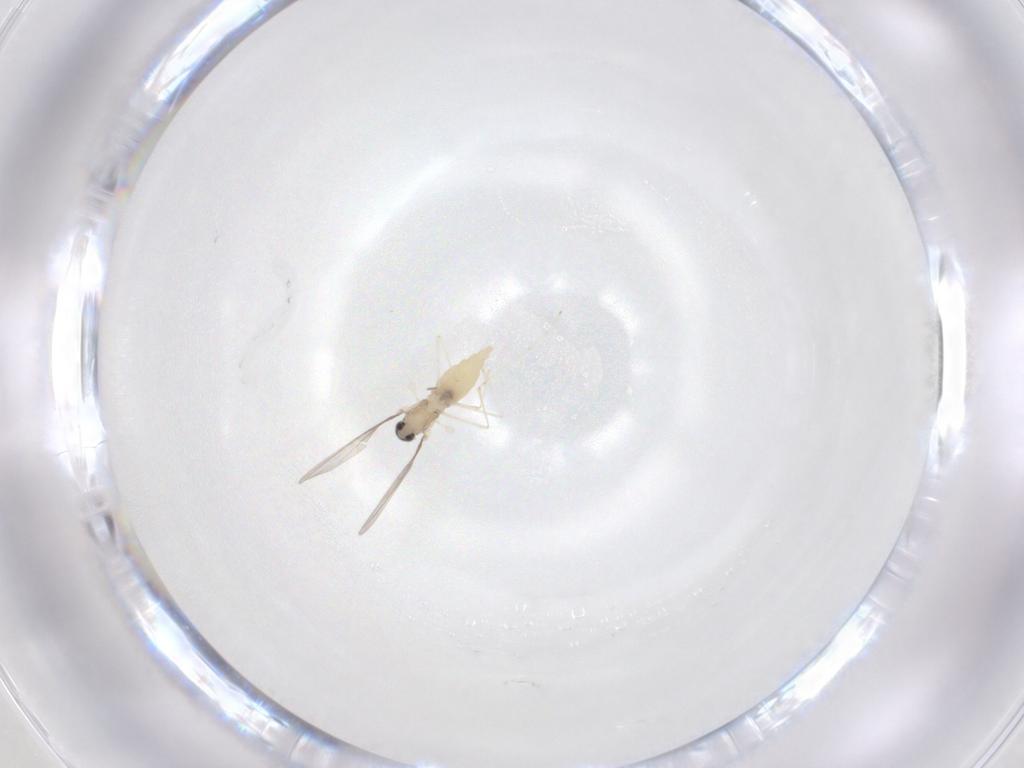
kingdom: Animalia
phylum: Arthropoda
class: Insecta
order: Diptera
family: Cecidomyiidae
